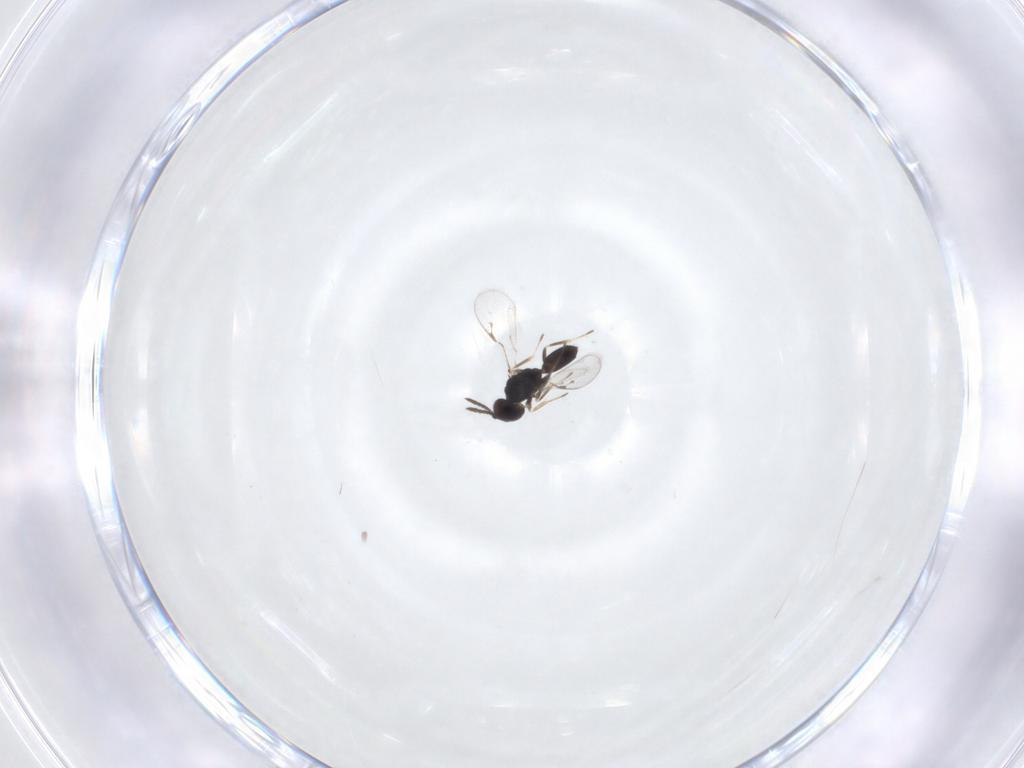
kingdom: Animalia
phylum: Arthropoda
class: Insecta
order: Hymenoptera
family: Pteromalidae
